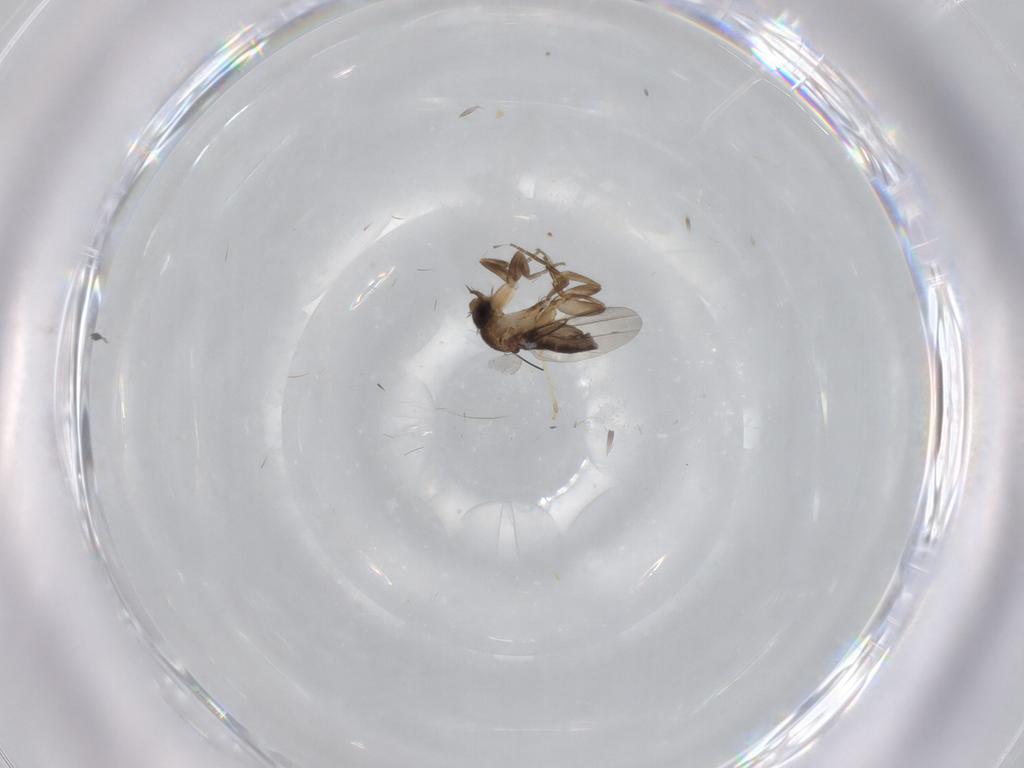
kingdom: Animalia
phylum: Arthropoda
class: Insecta
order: Diptera
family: Phoridae
